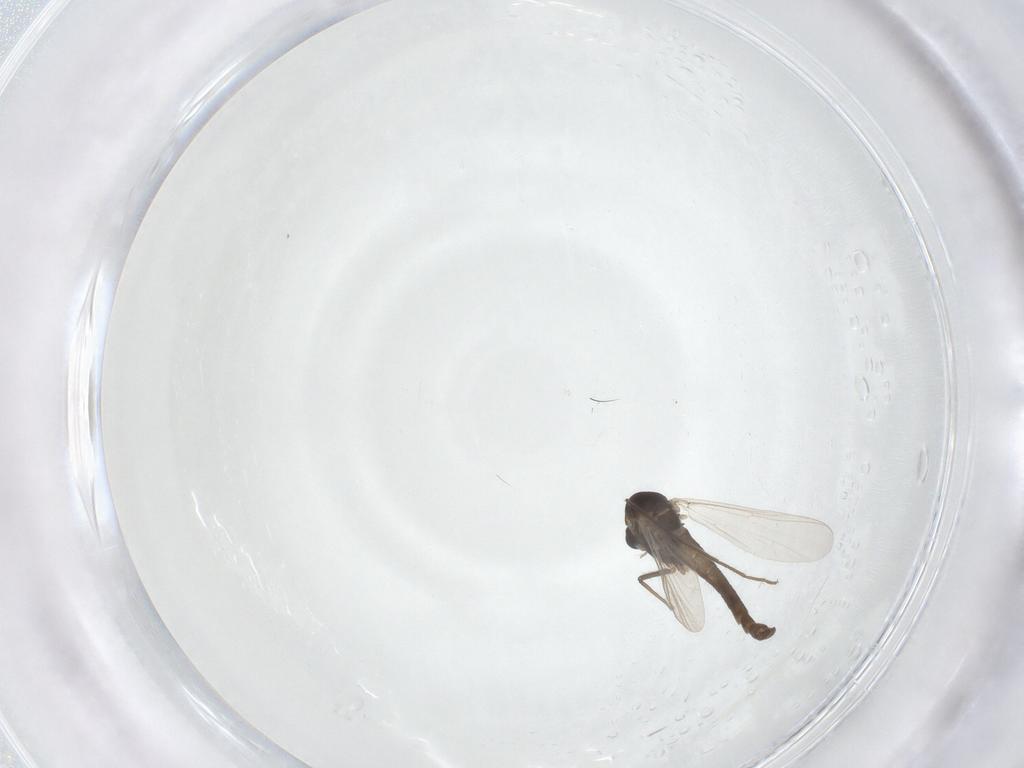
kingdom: Animalia
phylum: Arthropoda
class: Insecta
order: Diptera
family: Chironomidae
